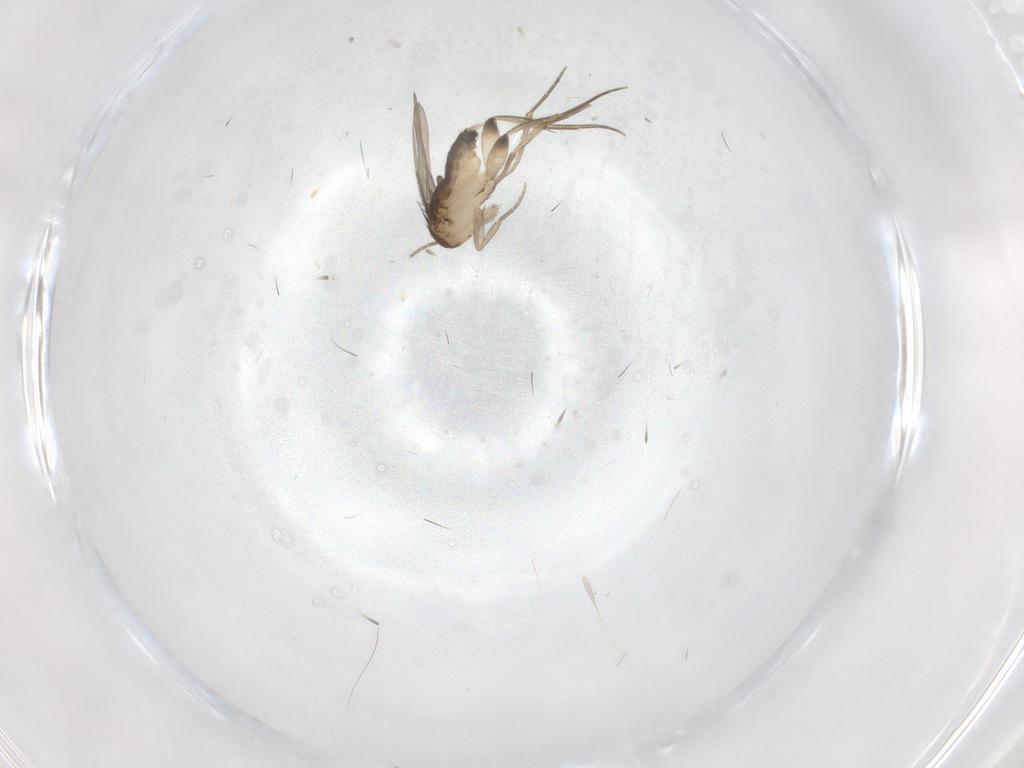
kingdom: Animalia
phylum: Arthropoda
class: Insecta
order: Diptera
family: Phoridae
